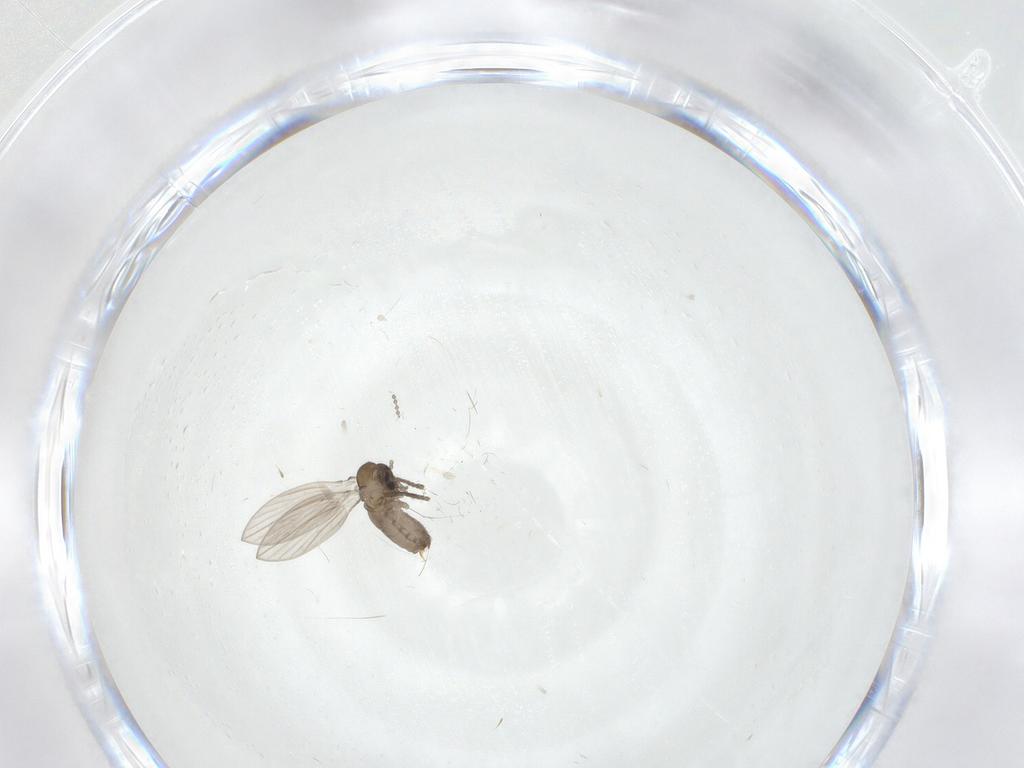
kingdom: Animalia
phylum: Arthropoda
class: Insecta
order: Diptera
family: Psychodidae
